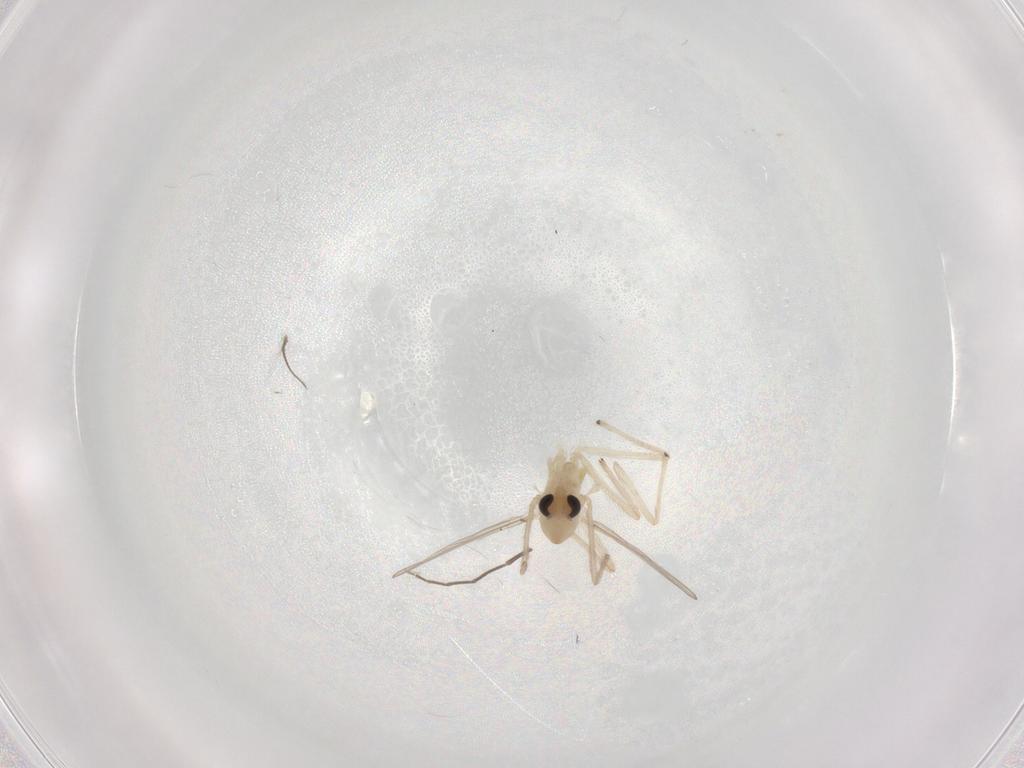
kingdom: Animalia
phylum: Arthropoda
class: Insecta
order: Diptera
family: Chironomidae
